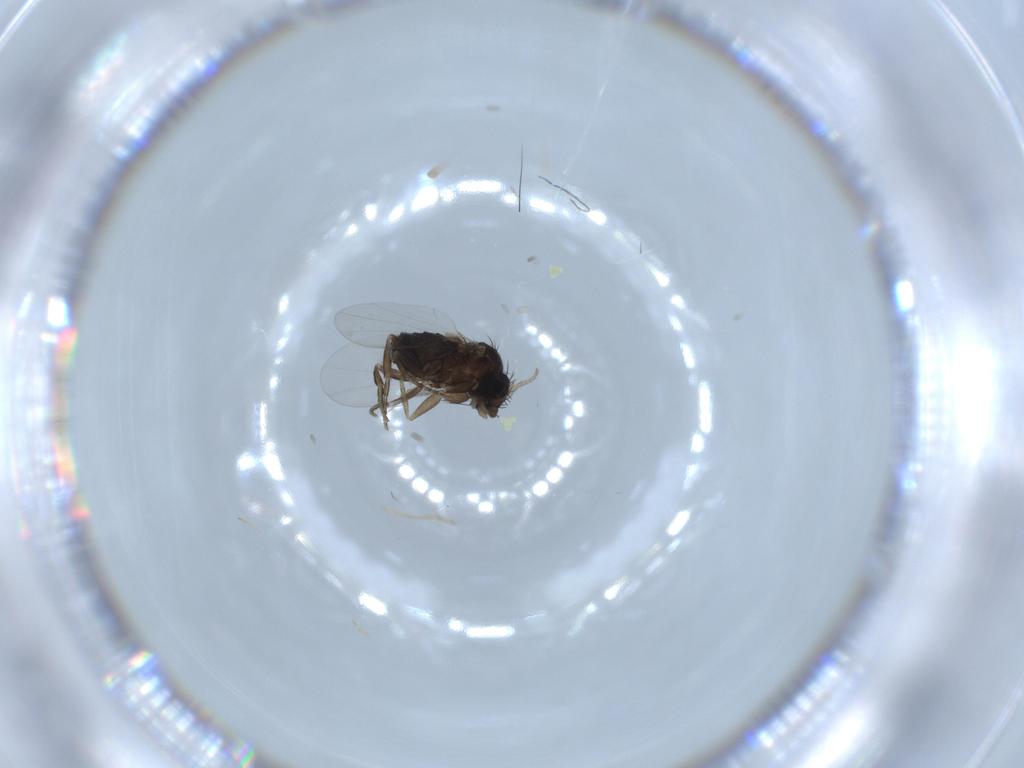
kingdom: Animalia
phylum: Arthropoda
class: Insecta
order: Diptera
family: Phoridae
